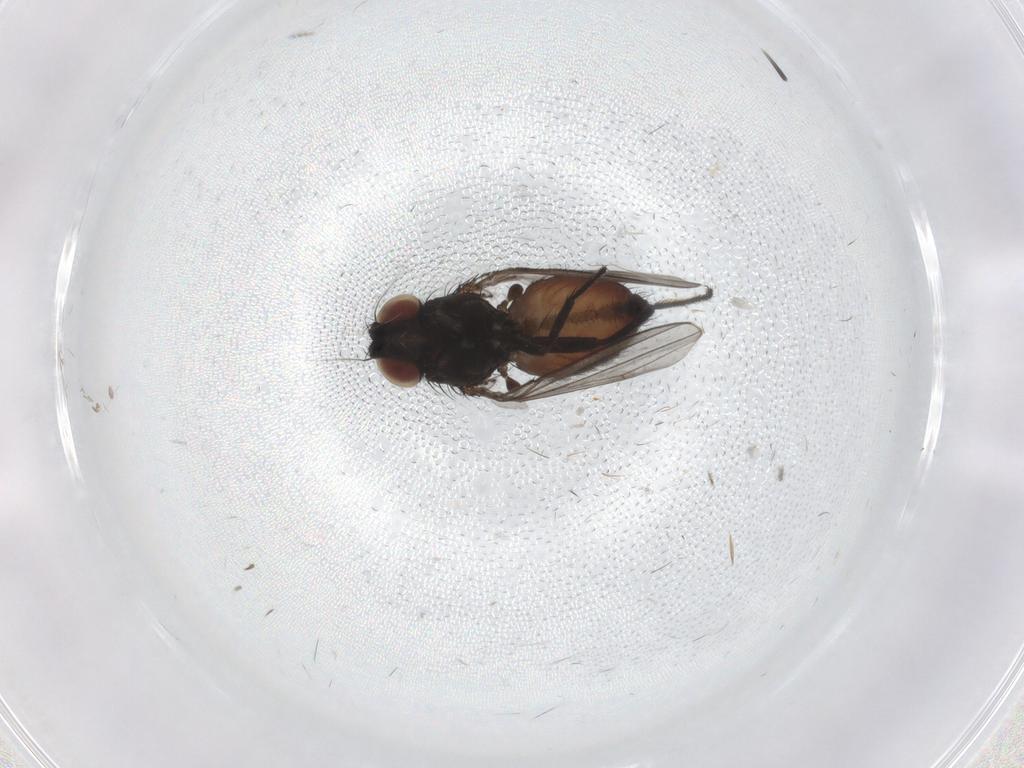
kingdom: Animalia
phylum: Arthropoda
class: Insecta
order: Diptera
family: Milichiidae
